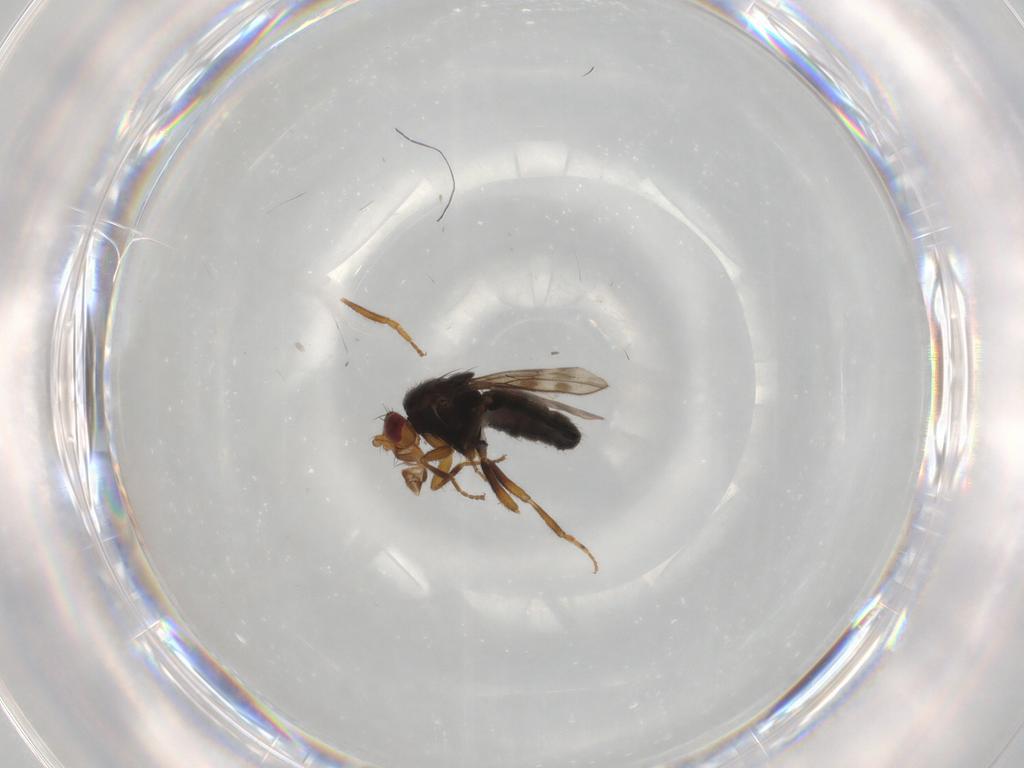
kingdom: Animalia
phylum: Arthropoda
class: Insecta
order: Diptera
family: Sphaeroceridae
